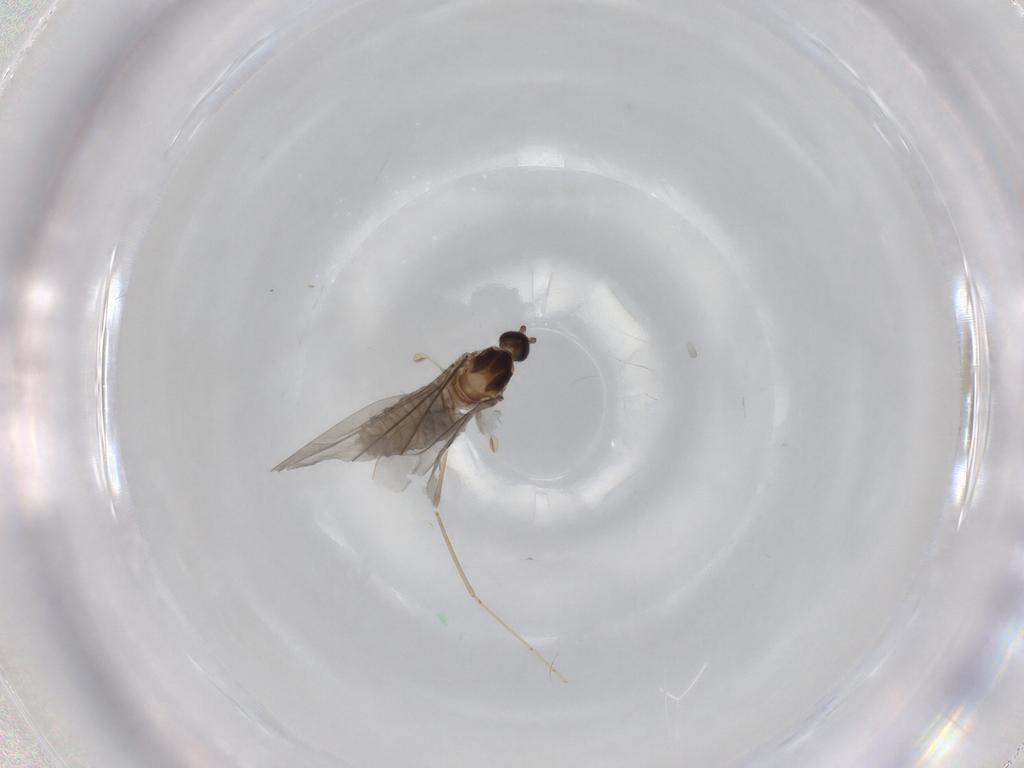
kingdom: Animalia
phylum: Arthropoda
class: Insecta
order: Diptera
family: Cecidomyiidae
